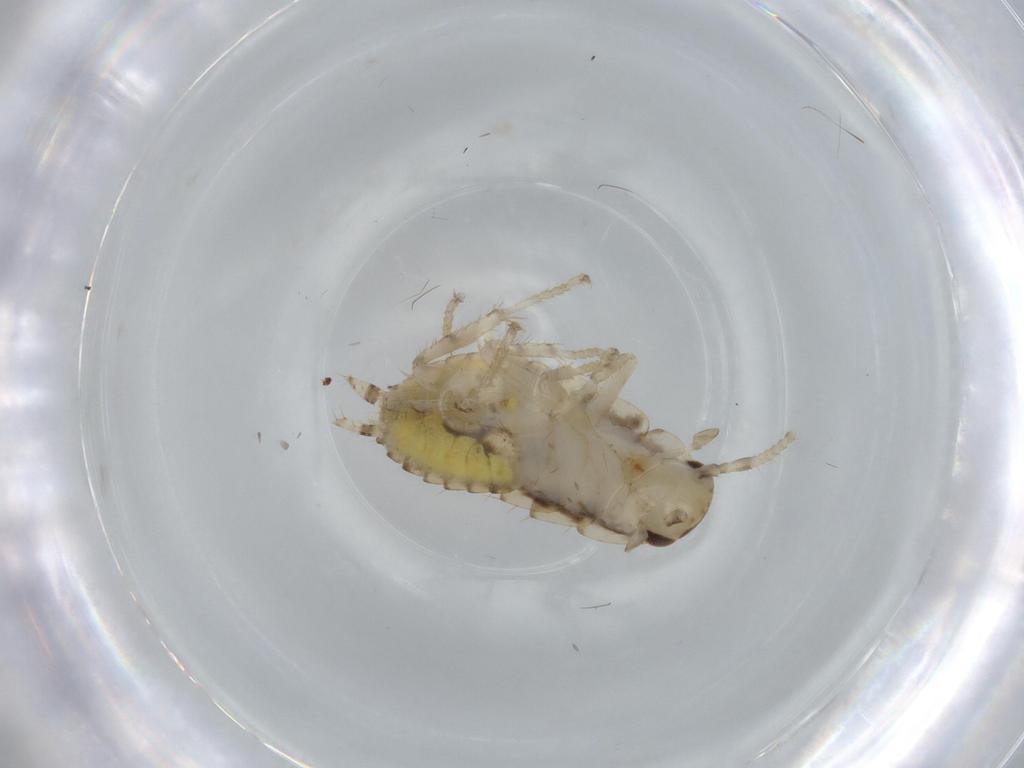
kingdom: Animalia
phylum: Arthropoda
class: Insecta
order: Blattodea
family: Ectobiidae
